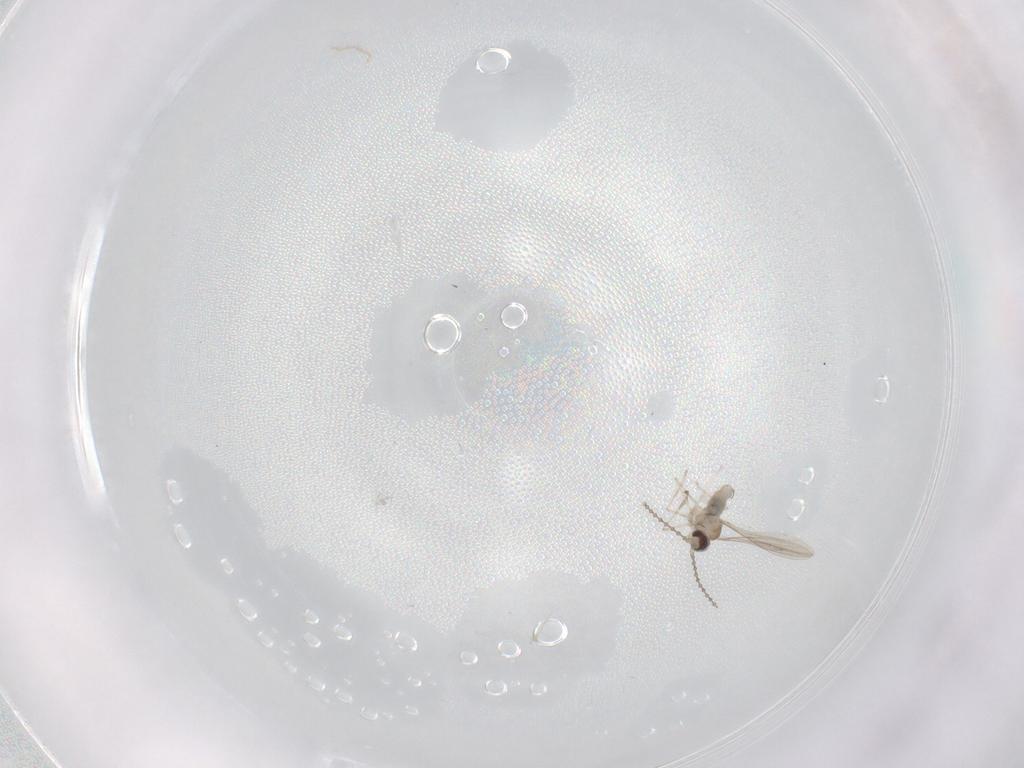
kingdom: Animalia
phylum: Arthropoda
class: Insecta
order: Diptera
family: Cecidomyiidae
